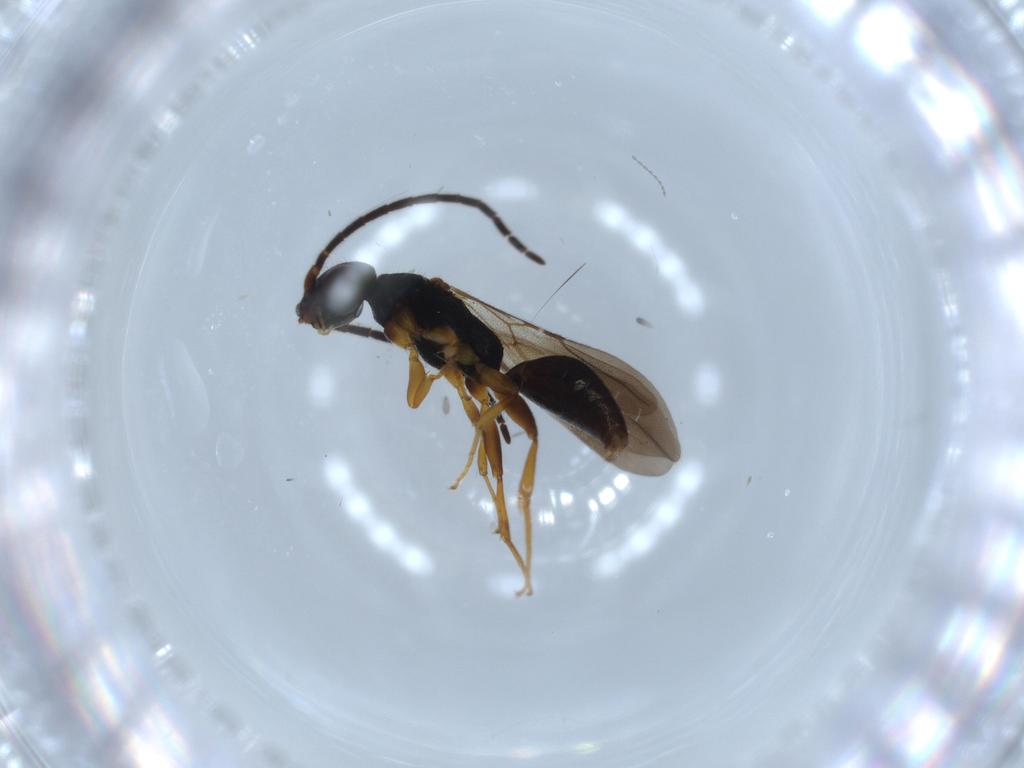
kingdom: Animalia
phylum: Arthropoda
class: Insecta
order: Hymenoptera
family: Bethylidae
